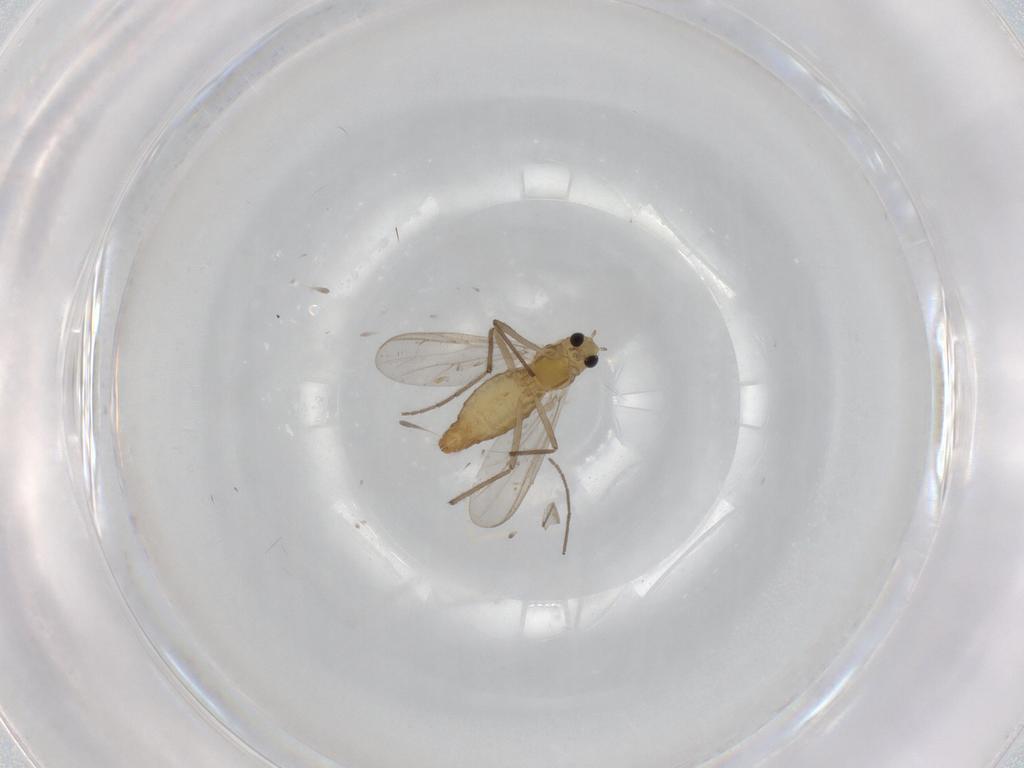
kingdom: Animalia
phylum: Arthropoda
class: Insecta
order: Diptera
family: Chironomidae
